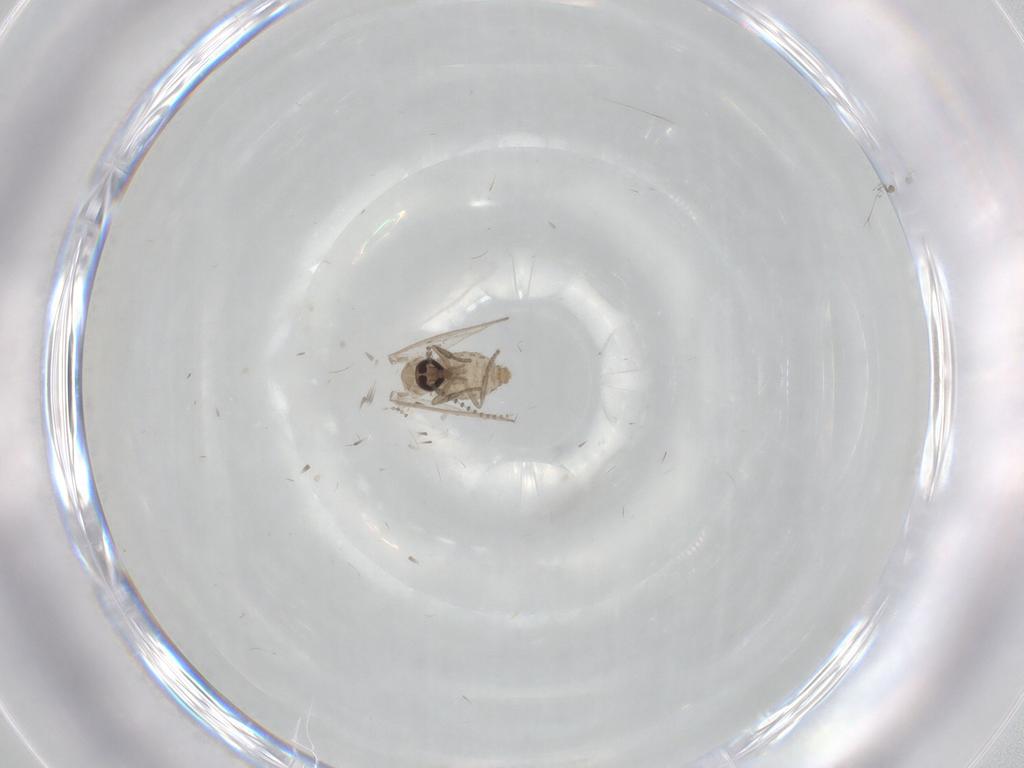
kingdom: Animalia
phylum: Arthropoda
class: Insecta
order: Diptera
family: Psychodidae
